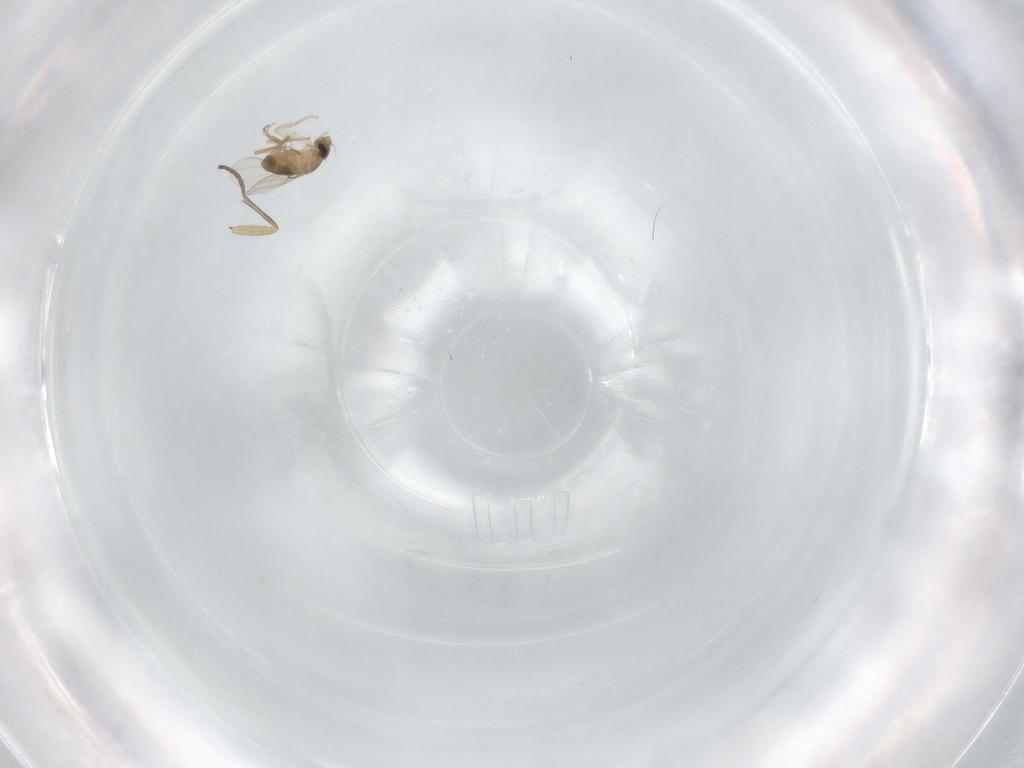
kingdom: Animalia
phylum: Arthropoda
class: Insecta
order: Diptera
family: Phoridae
